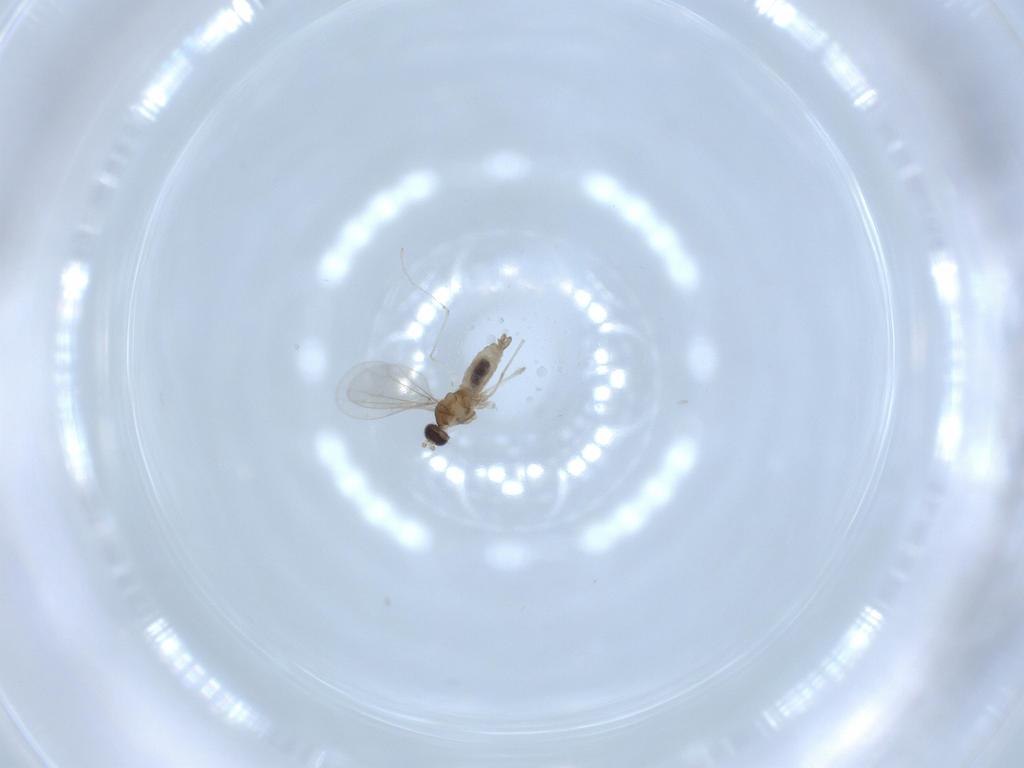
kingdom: Animalia
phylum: Arthropoda
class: Insecta
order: Diptera
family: Cecidomyiidae
